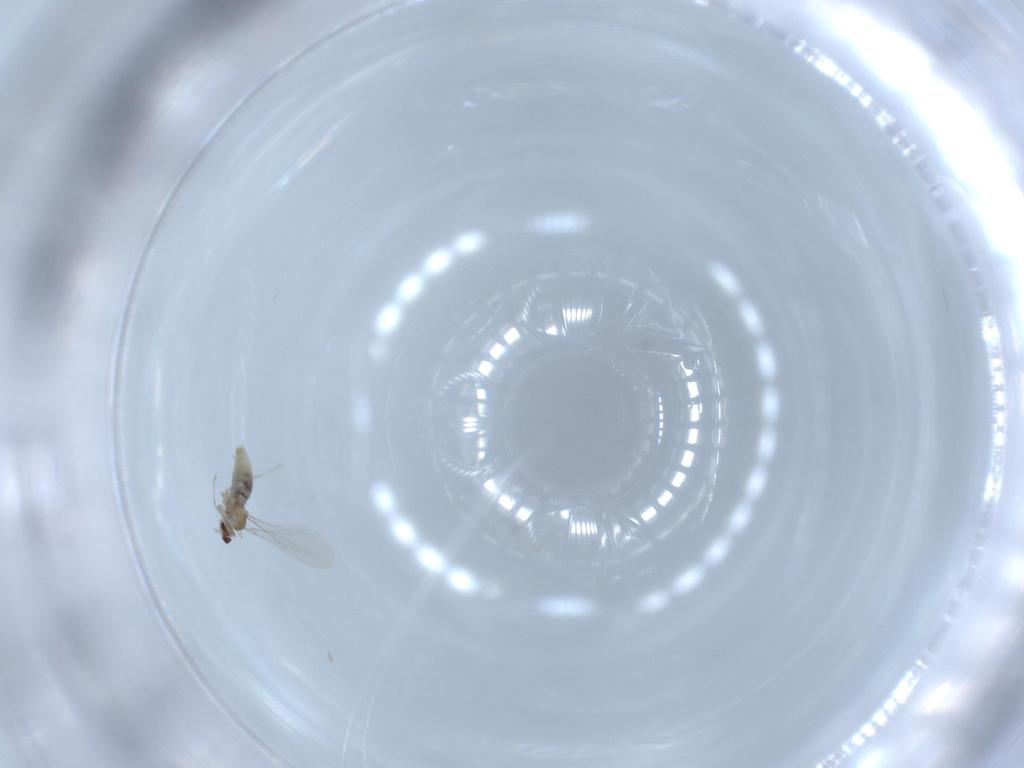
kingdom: Animalia
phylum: Arthropoda
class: Insecta
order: Diptera
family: Cecidomyiidae
